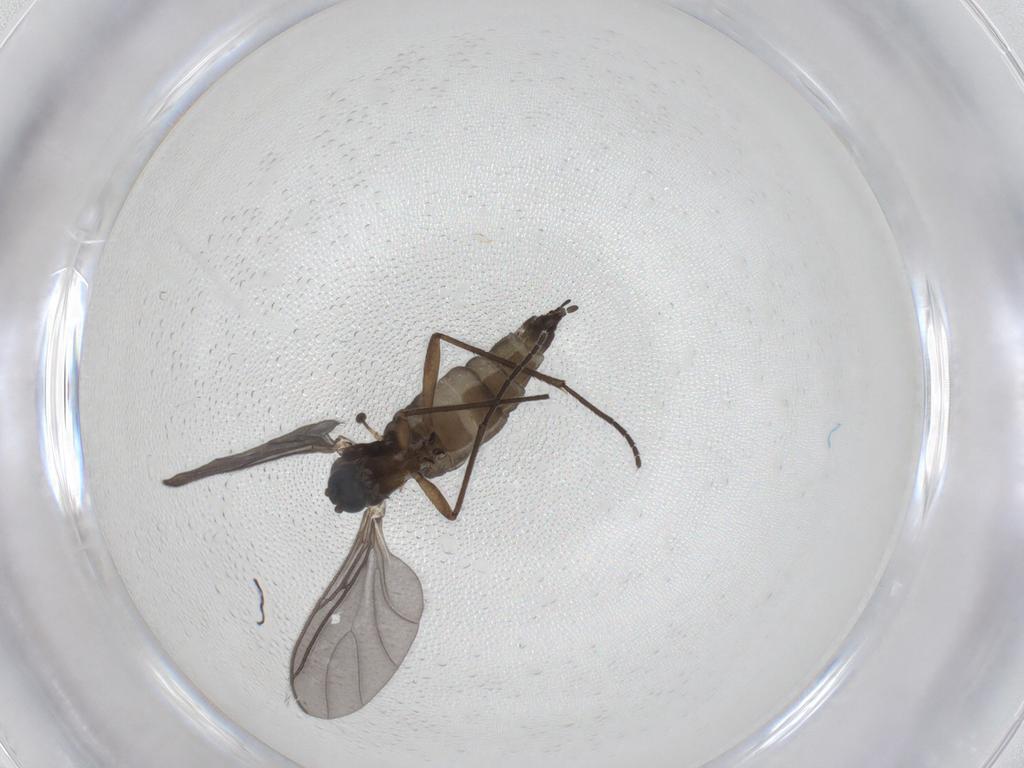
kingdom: Animalia
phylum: Arthropoda
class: Insecta
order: Diptera
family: Sciaridae
